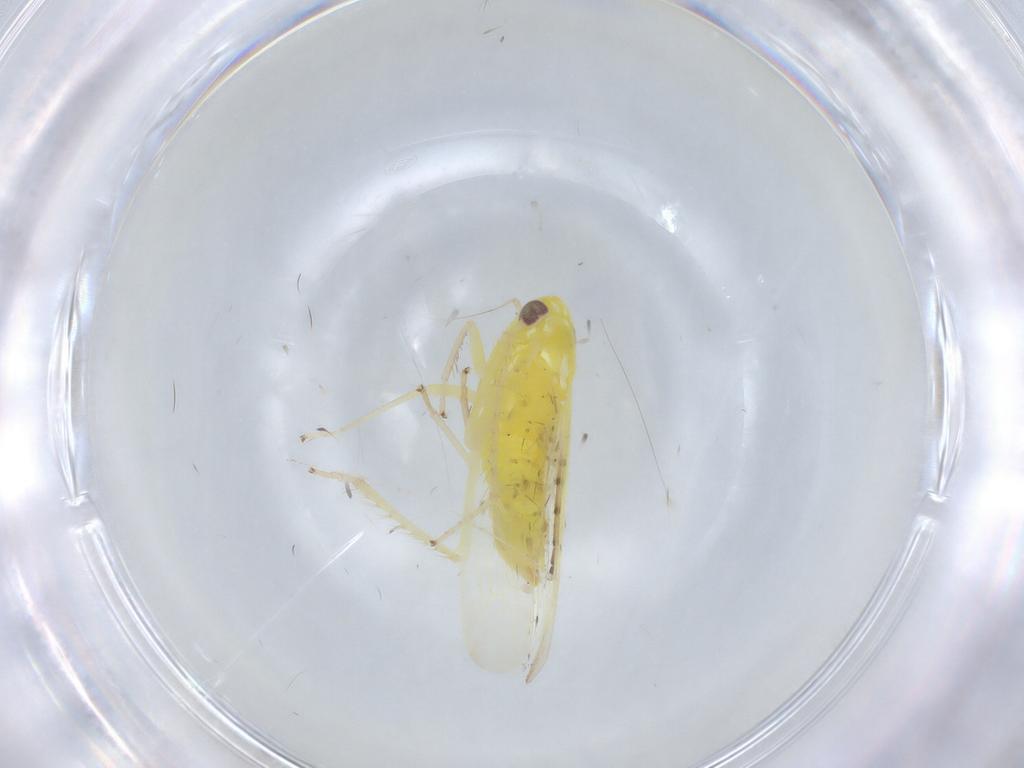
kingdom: Animalia
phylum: Arthropoda
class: Insecta
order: Hemiptera
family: Cicadellidae
